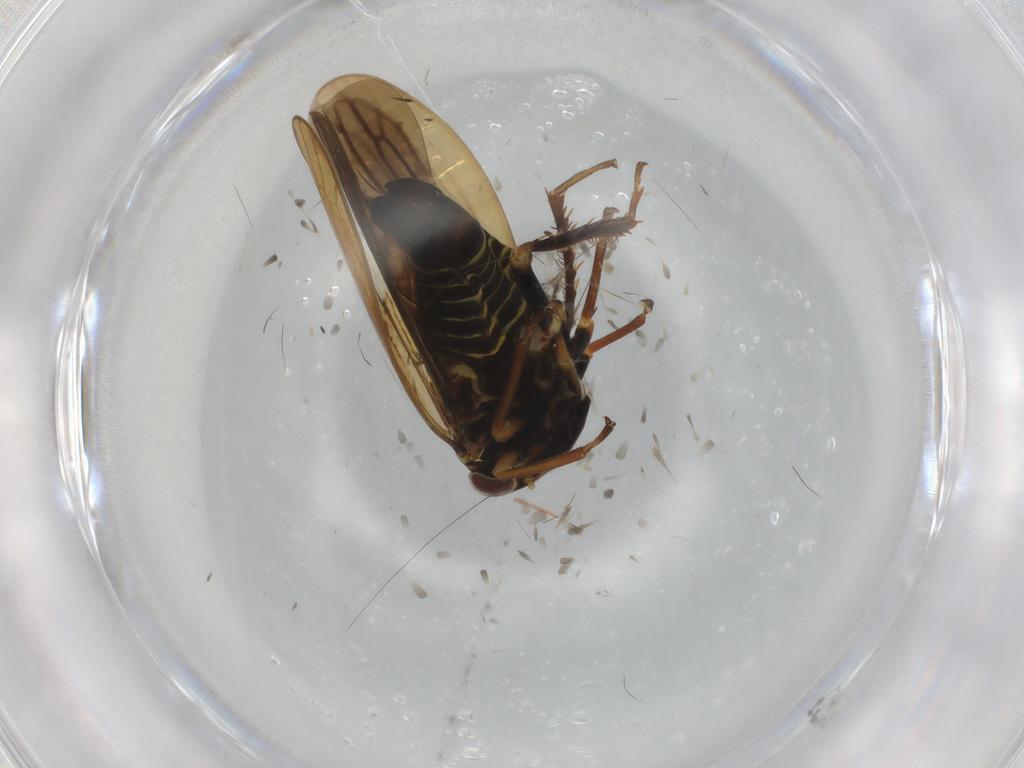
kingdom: Animalia
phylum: Arthropoda
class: Insecta
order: Hemiptera
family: Cicadellidae
